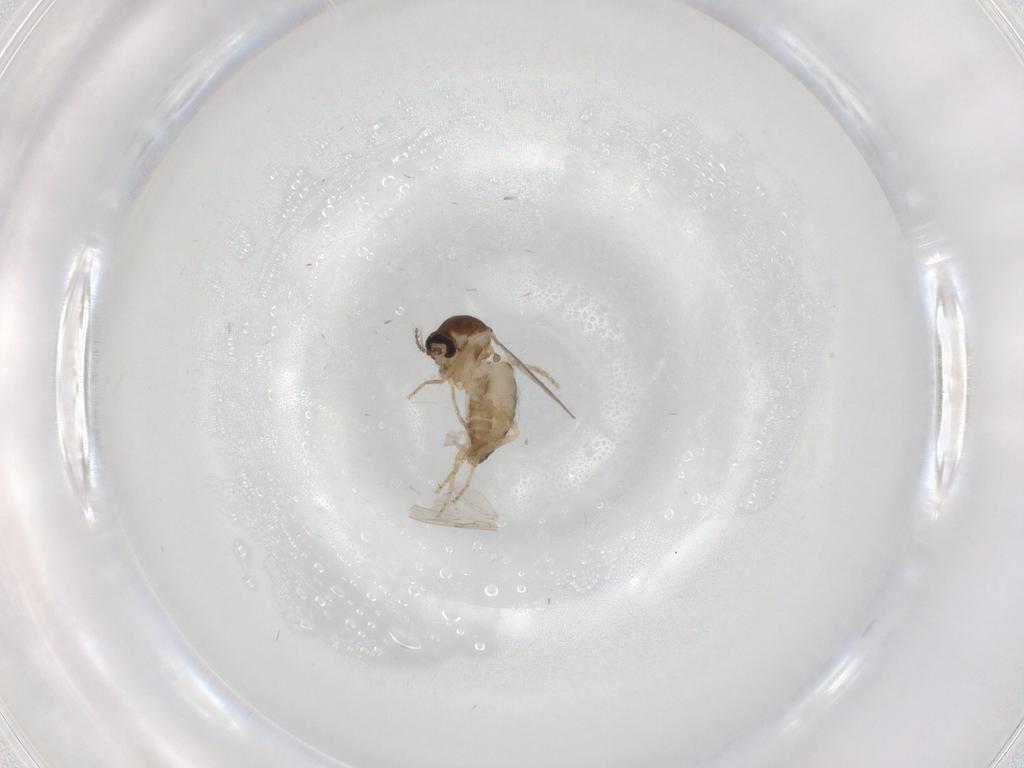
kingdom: Animalia
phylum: Arthropoda
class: Insecta
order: Diptera
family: Ceratopogonidae
